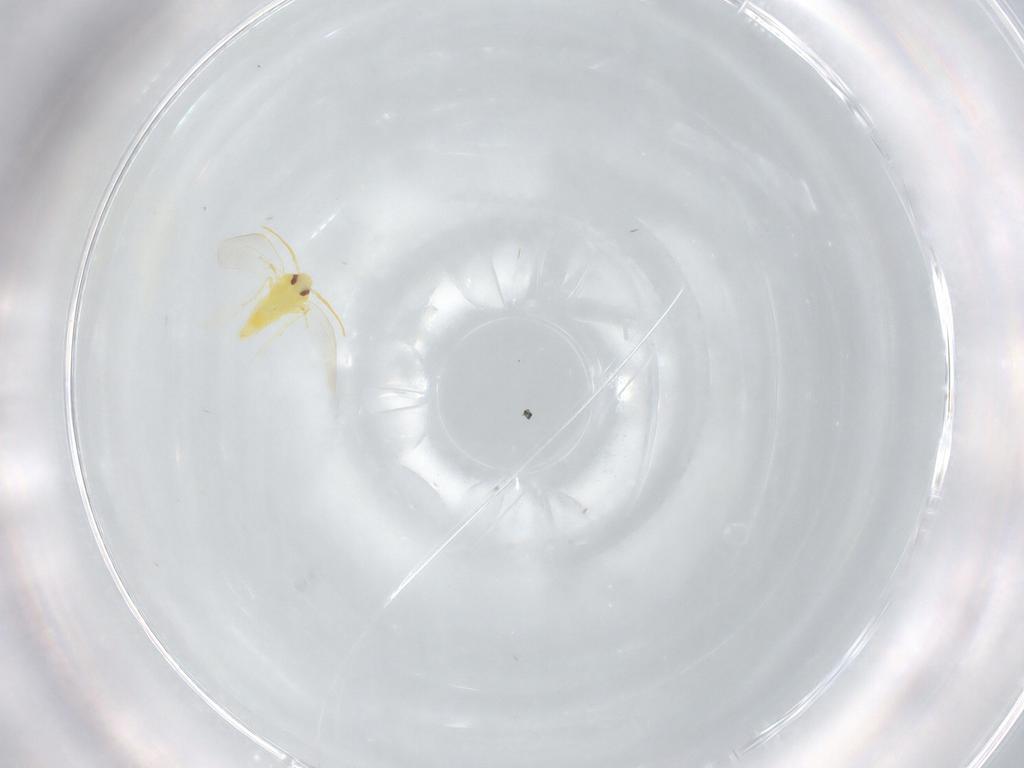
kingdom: Animalia
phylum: Arthropoda
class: Insecta
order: Hemiptera
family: Aleyrodidae
